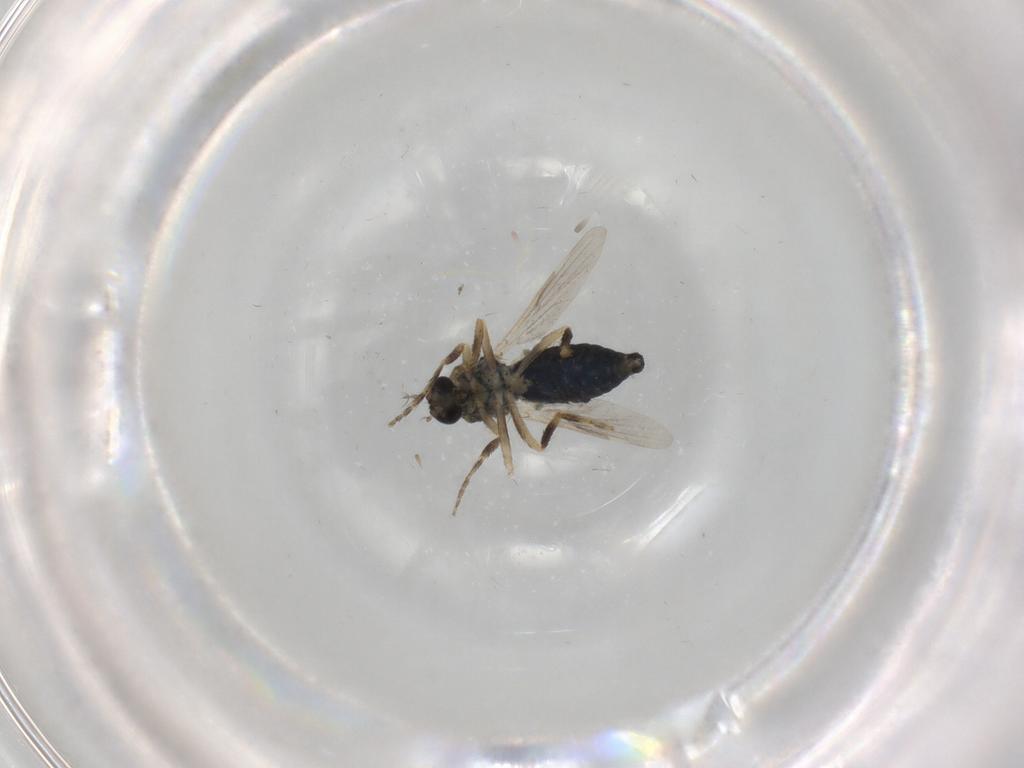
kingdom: Animalia
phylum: Arthropoda
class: Insecta
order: Diptera
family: Ceratopogonidae
